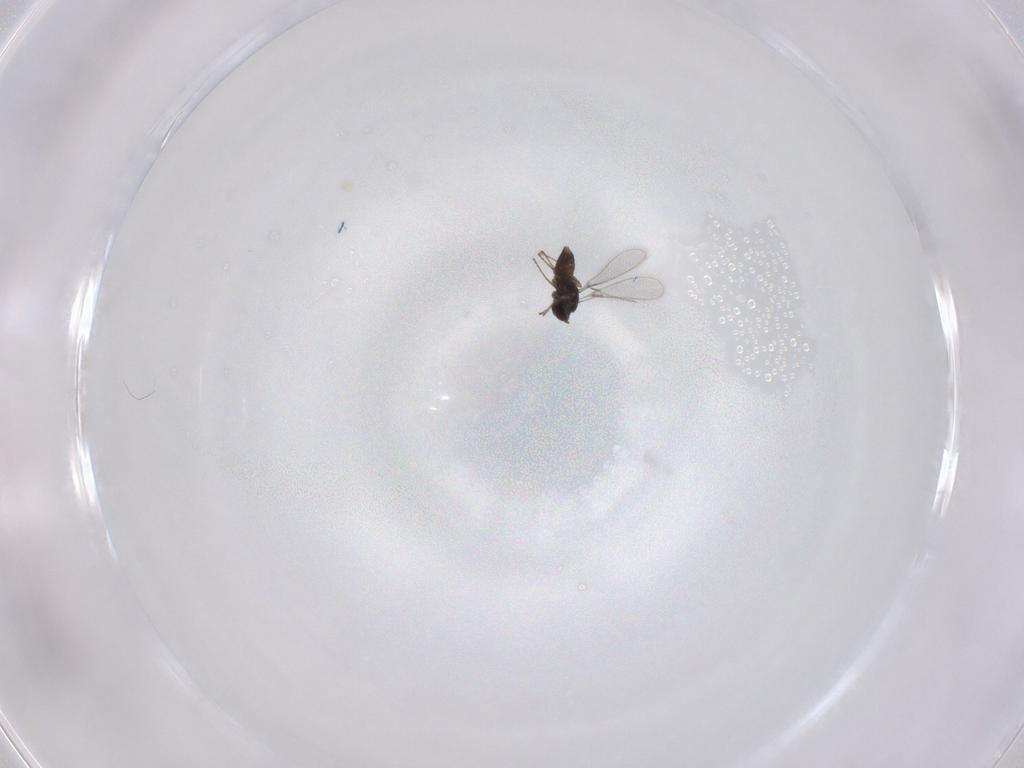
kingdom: Animalia
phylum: Arthropoda
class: Insecta
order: Hymenoptera
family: Mymaridae
